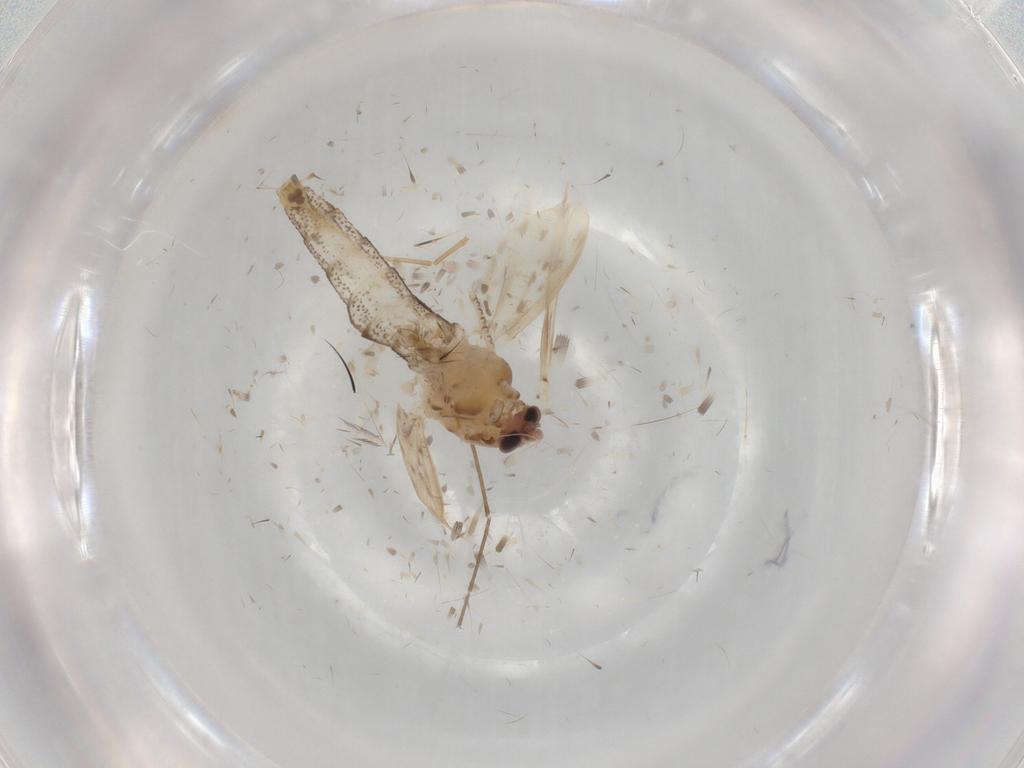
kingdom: Animalia
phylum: Arthropoda
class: Insecta
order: Diptera
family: Chaoboridae
